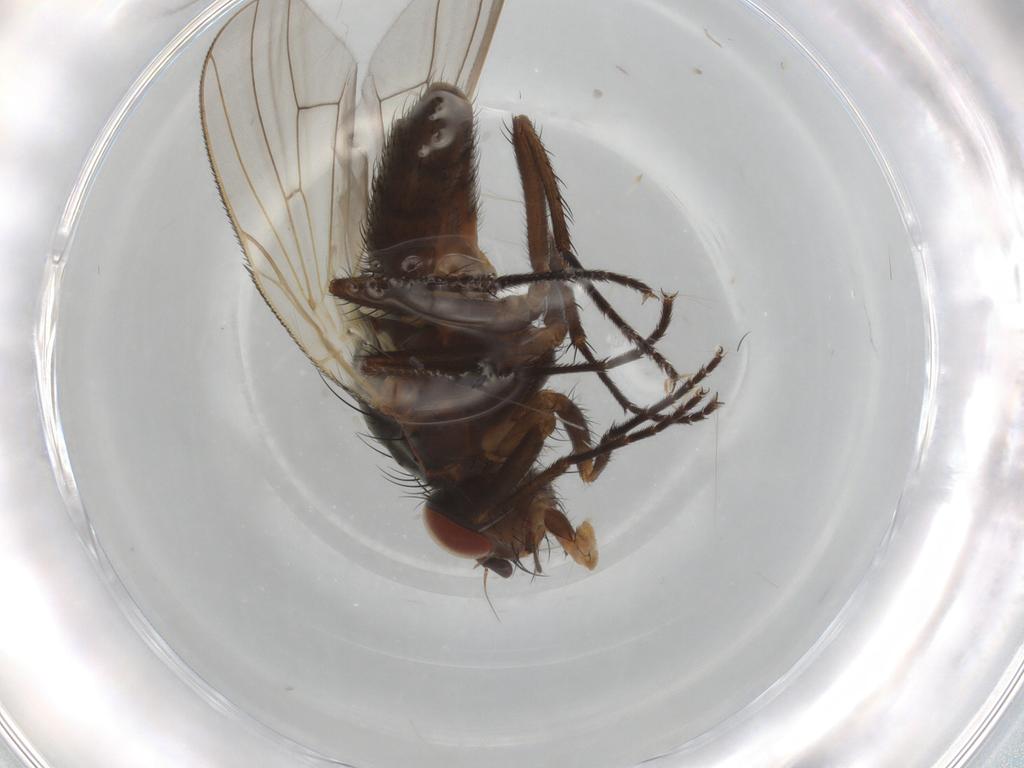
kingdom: Animalia
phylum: Arthropoda
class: Insecta
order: Diptera
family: Anthomyiidae
